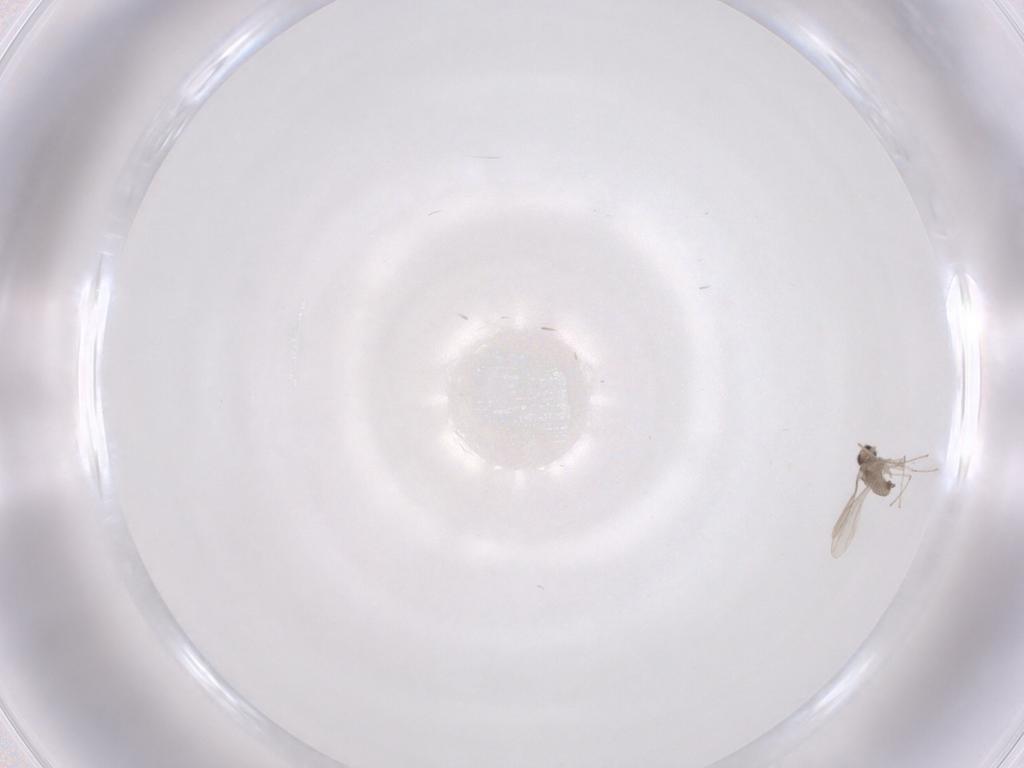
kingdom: Animalia
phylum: Arthropoda
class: Insecta
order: Diptera
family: Cecidomyiidae
